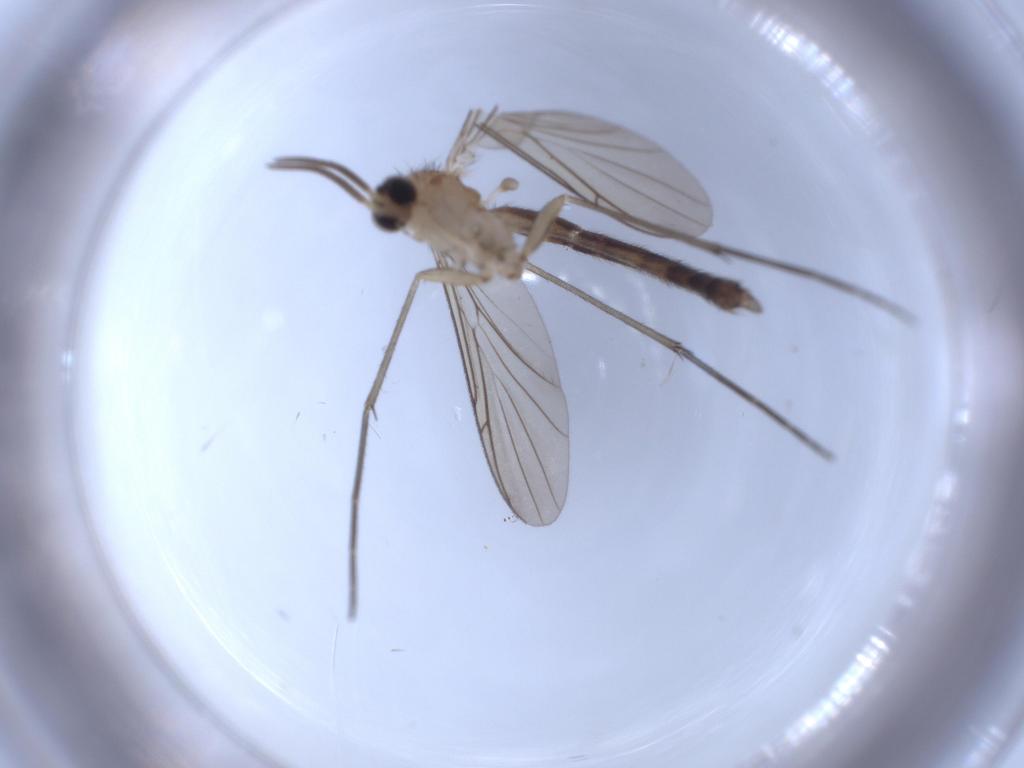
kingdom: Animalia
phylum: Arthropoda
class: Insecta
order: Diptera
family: Keroplatidae
